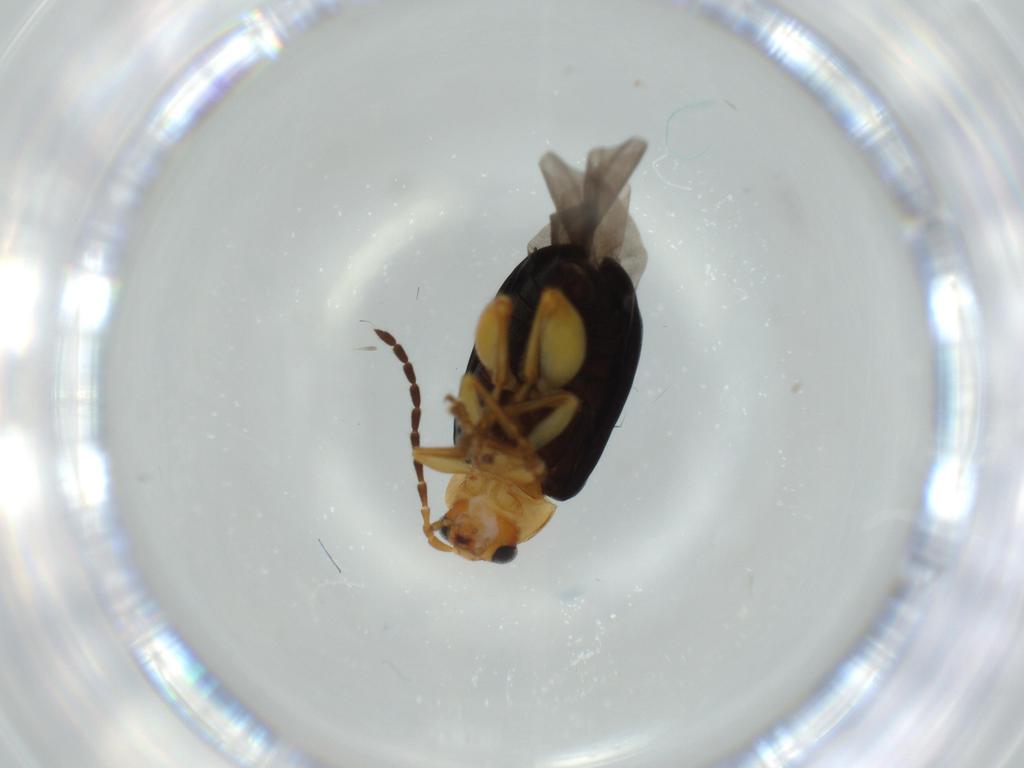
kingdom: Animalia
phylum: Arthropoda
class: Insecta
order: Coleoptera
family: Chrysomelidae
